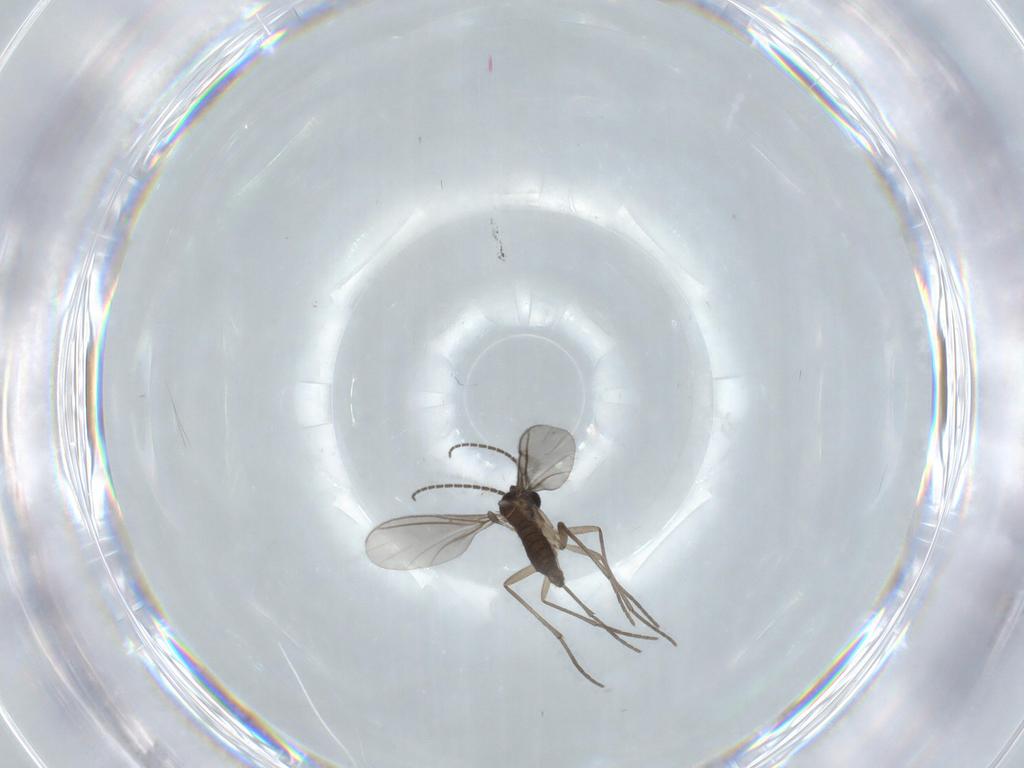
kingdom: Animalia
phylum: Arthropoda
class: Insecta
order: Diptera
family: Sciaridae
